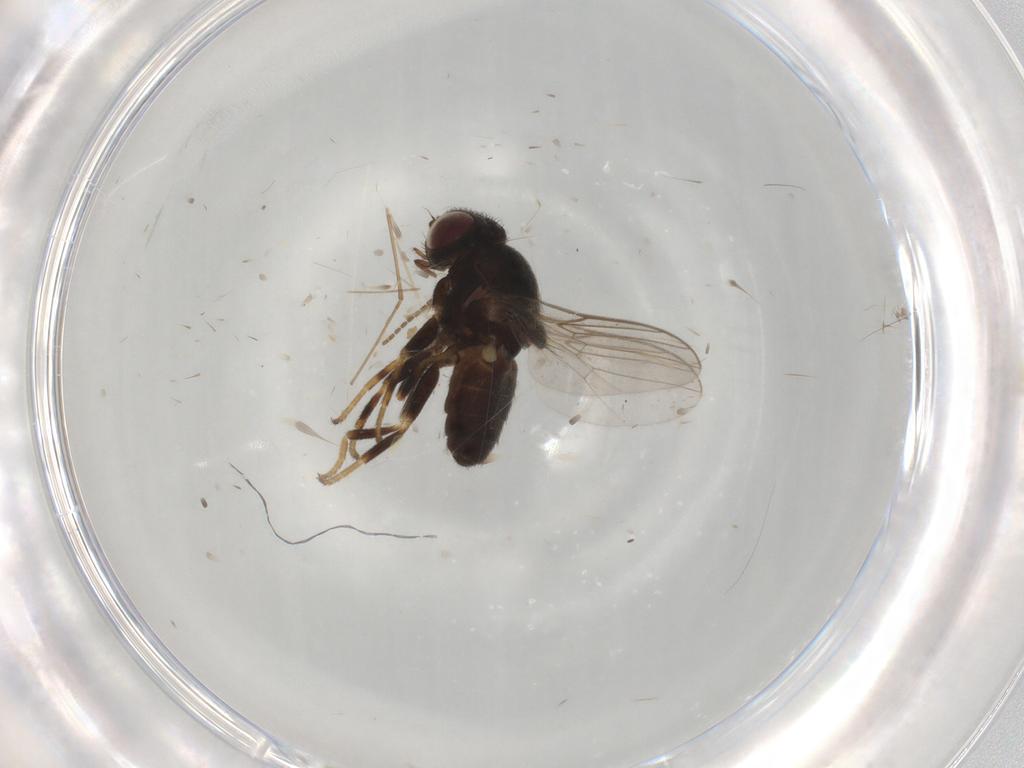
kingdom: Animalia
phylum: Arthropoda
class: Insecta
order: Diptera
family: Chloropidae
